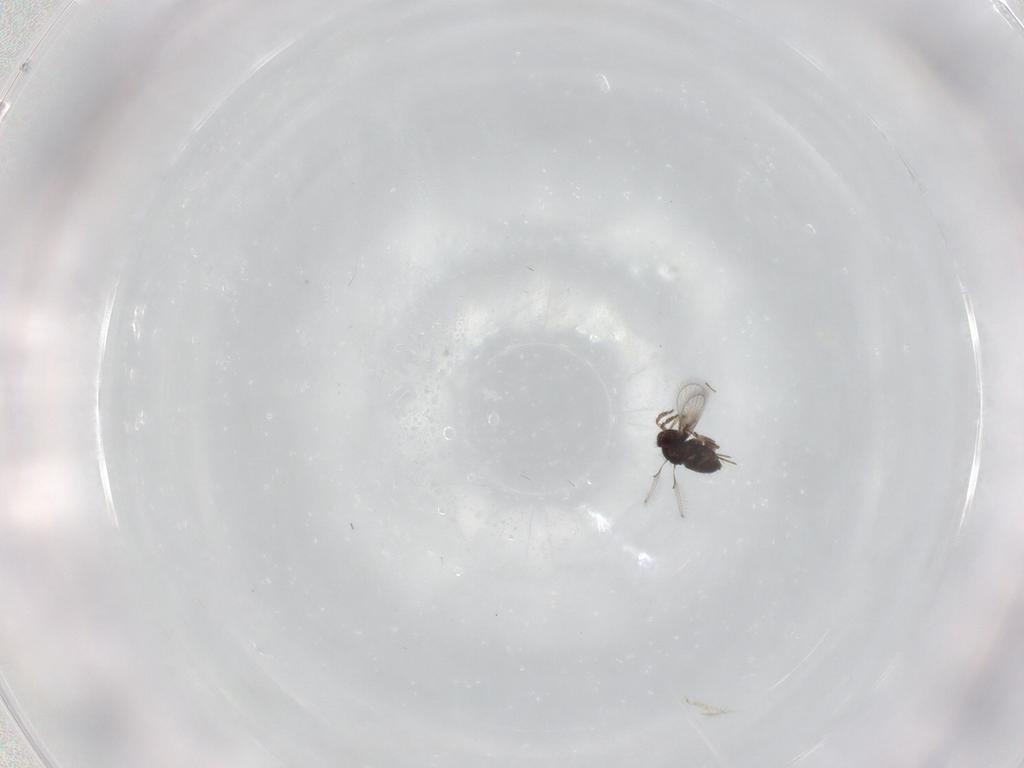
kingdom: Animalia
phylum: Arthropoda
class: Insecta
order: Hymenoptera
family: Trichogrammatidae
